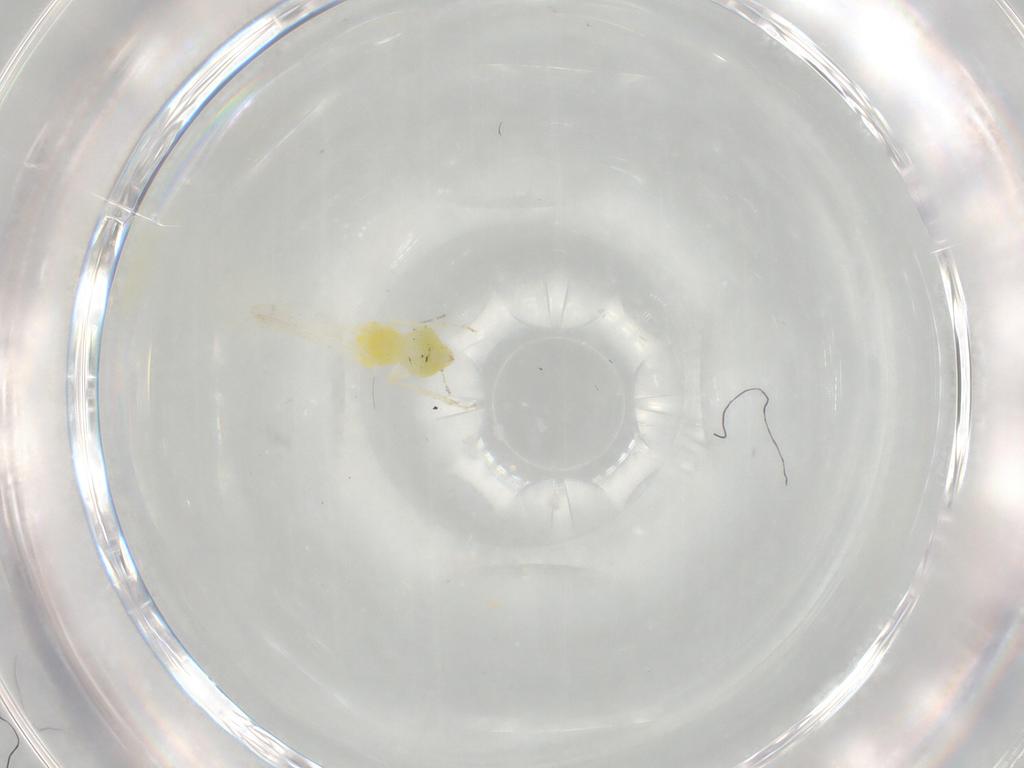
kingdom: Animalia
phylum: Arthropoda
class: Insecta
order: Hemiptera
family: Aleyrodidae
